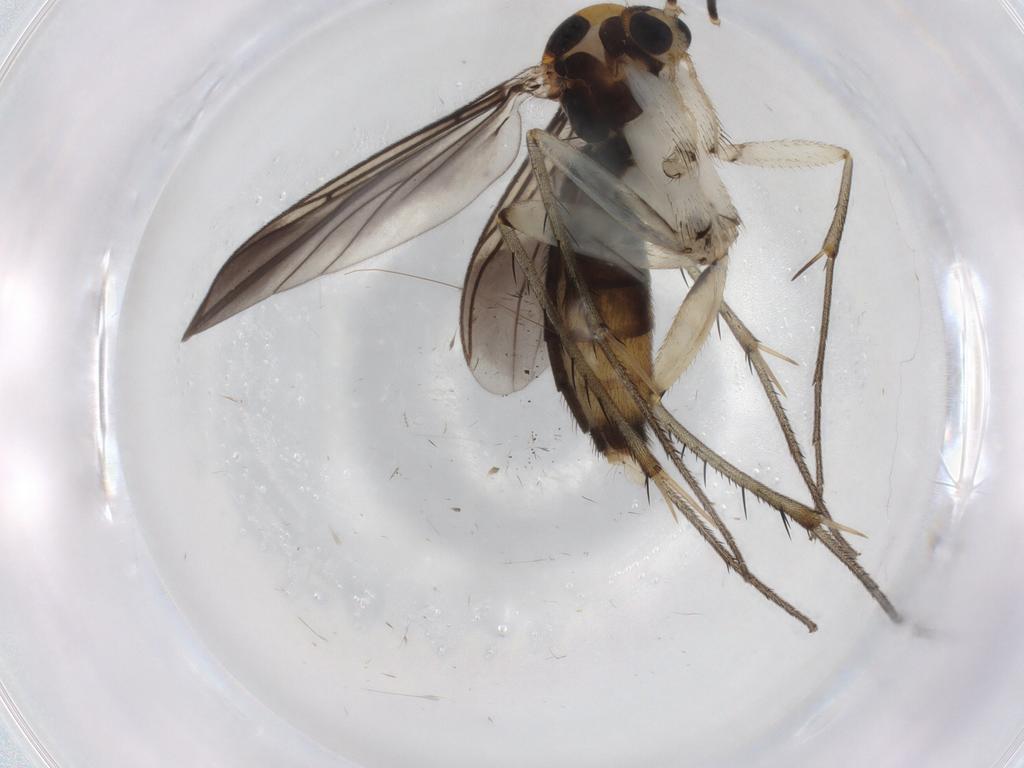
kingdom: Animalia
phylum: Arthropoda
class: Insecta
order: Diptera
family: Mycetophilidae
